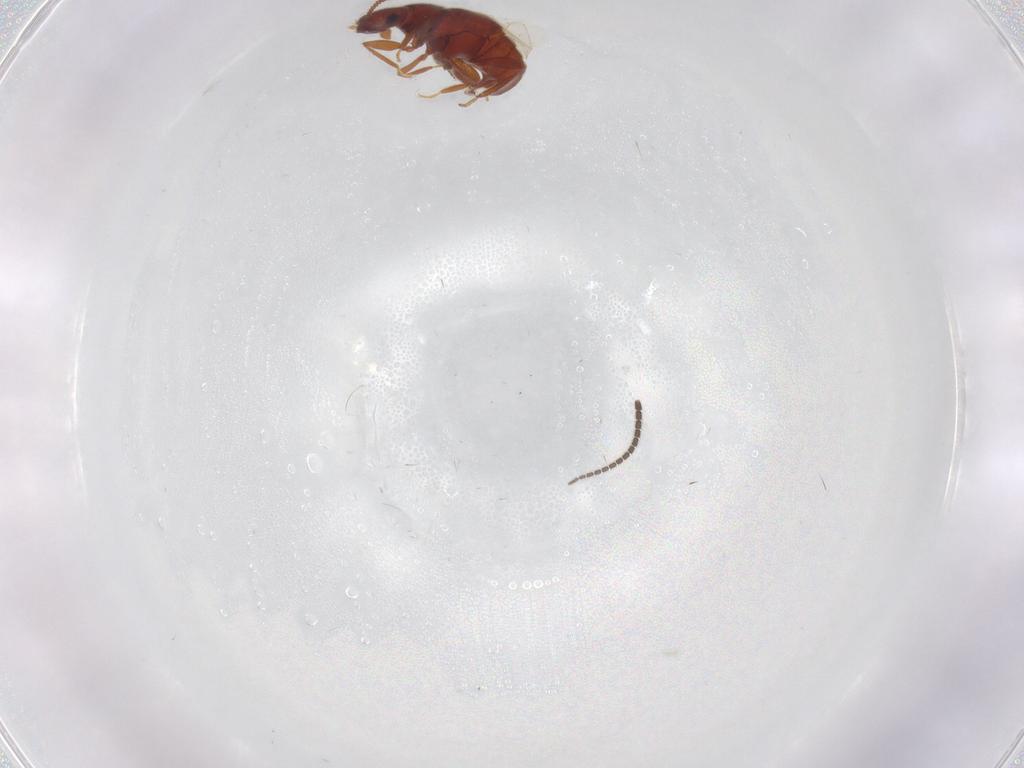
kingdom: Animalia
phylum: Arthropoda
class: Insecta
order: Coleoptera
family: Staphylinidae
